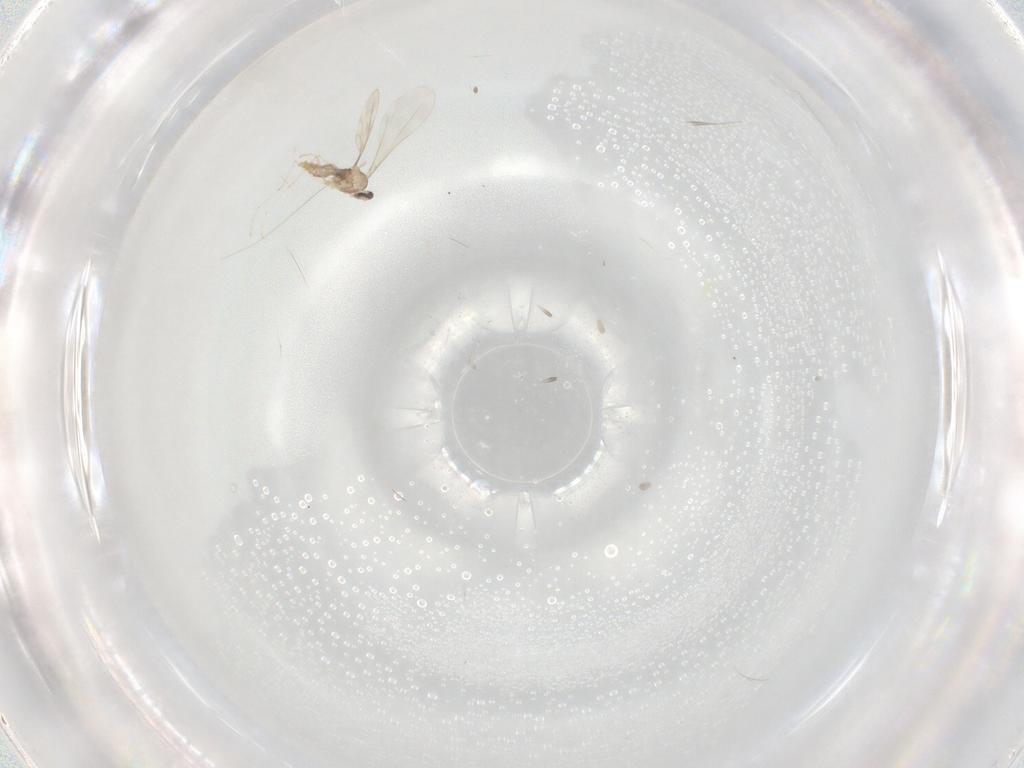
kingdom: Animalia
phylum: Arthropoda
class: Insecta
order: Diptera
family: Cecidomyiidae
